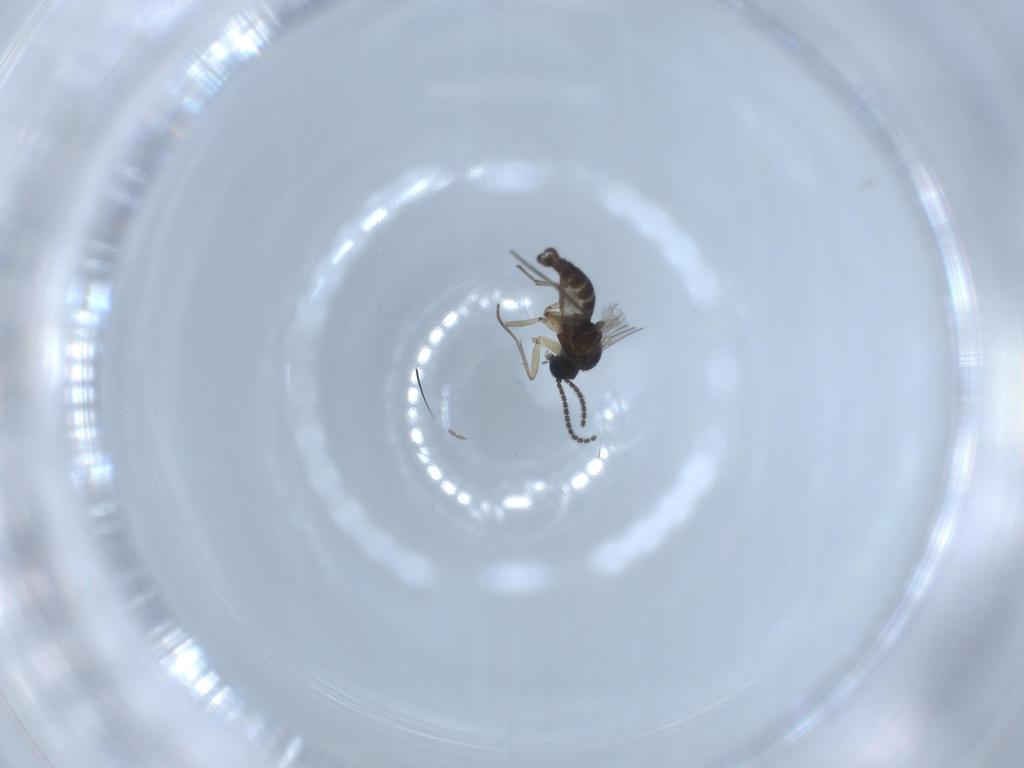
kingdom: Animalia
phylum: Arthropoda
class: Insecta
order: Diptera
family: Sciaridae
